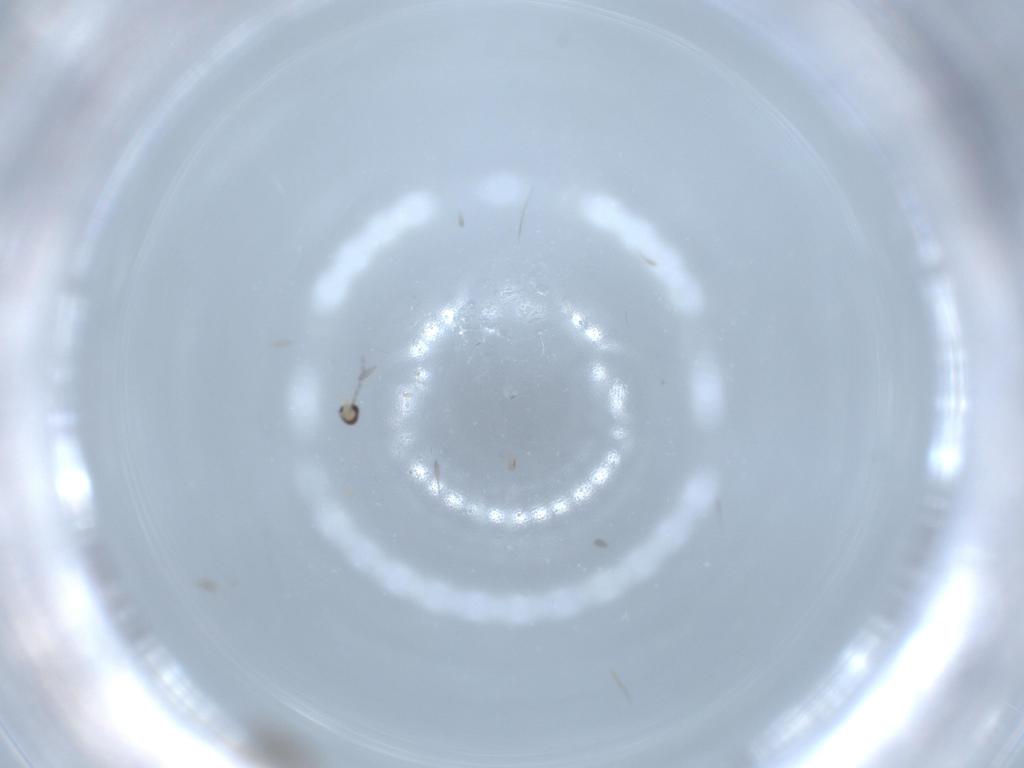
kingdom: Animalia
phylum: Arthropoda
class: Insecta
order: Diptera
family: Cecidomyiidae
